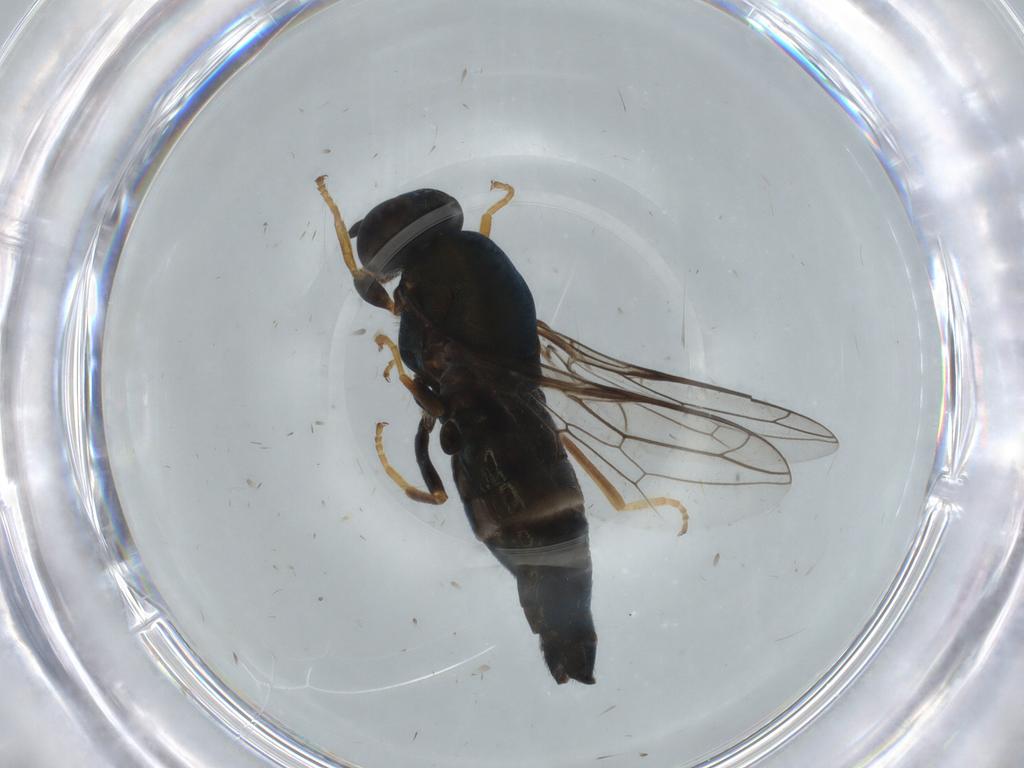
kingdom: Animalia
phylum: Arthropoda
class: Insecta
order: Diptera
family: Scenopinidae
